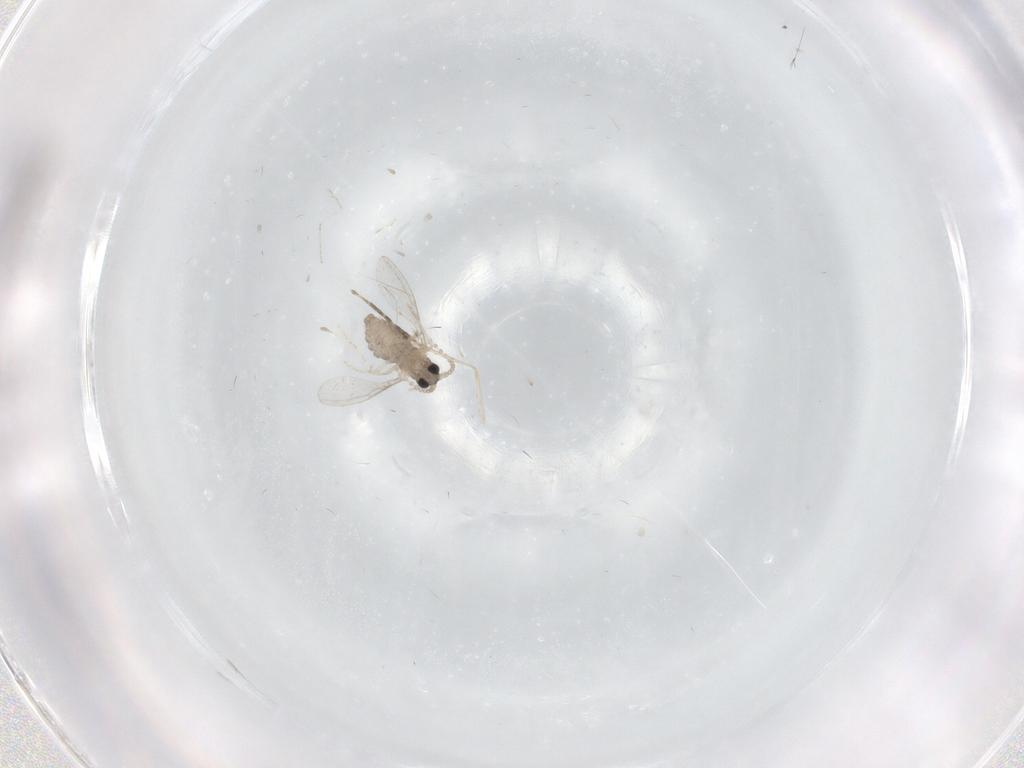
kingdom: Animalia
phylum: Arthropoda
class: Insecta
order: Diptera
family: Cecidomyiidae
